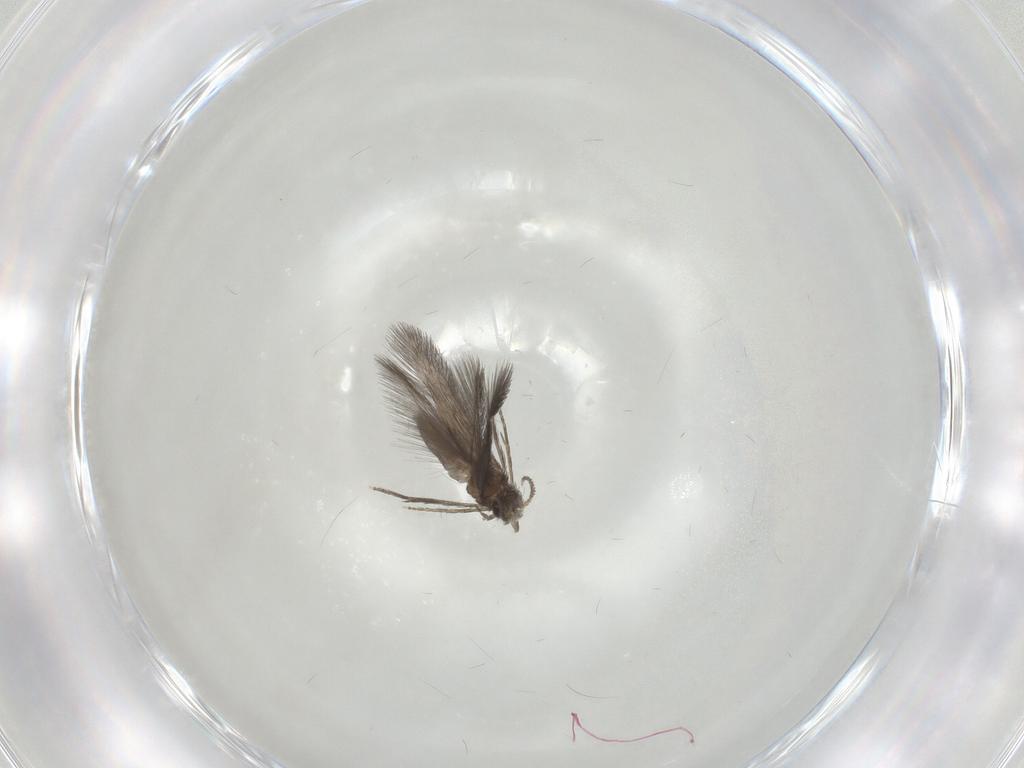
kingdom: Animalia
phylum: Arthropoda
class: Insecta
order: Trichoptera
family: Hydroptilidae
